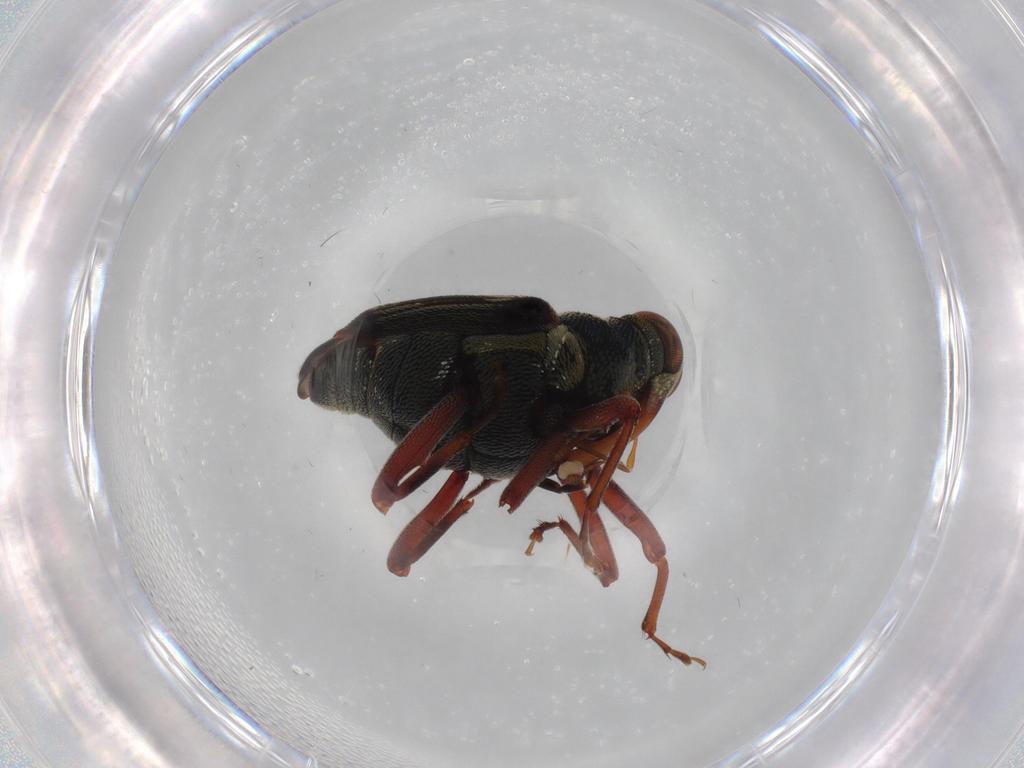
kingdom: Animalia
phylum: Arthropoda
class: Insecta
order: Coleoptera
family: Curculionidae
